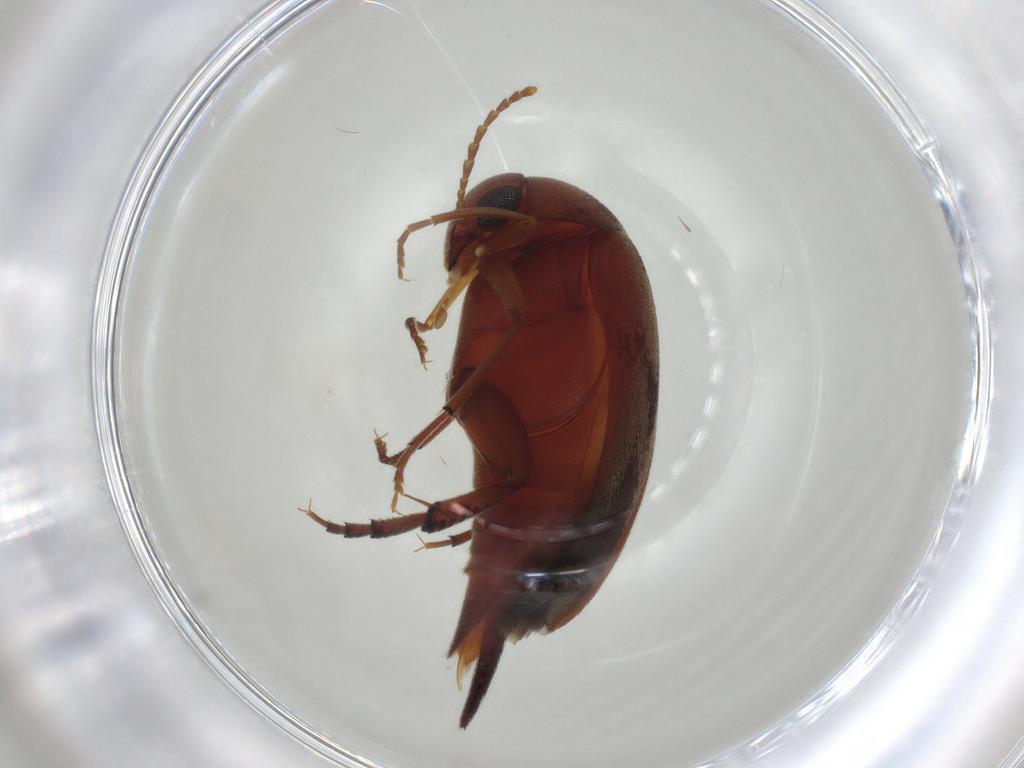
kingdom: Animalia
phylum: Arthropoda
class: Insecta
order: Coleoptera
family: Mordellidae
